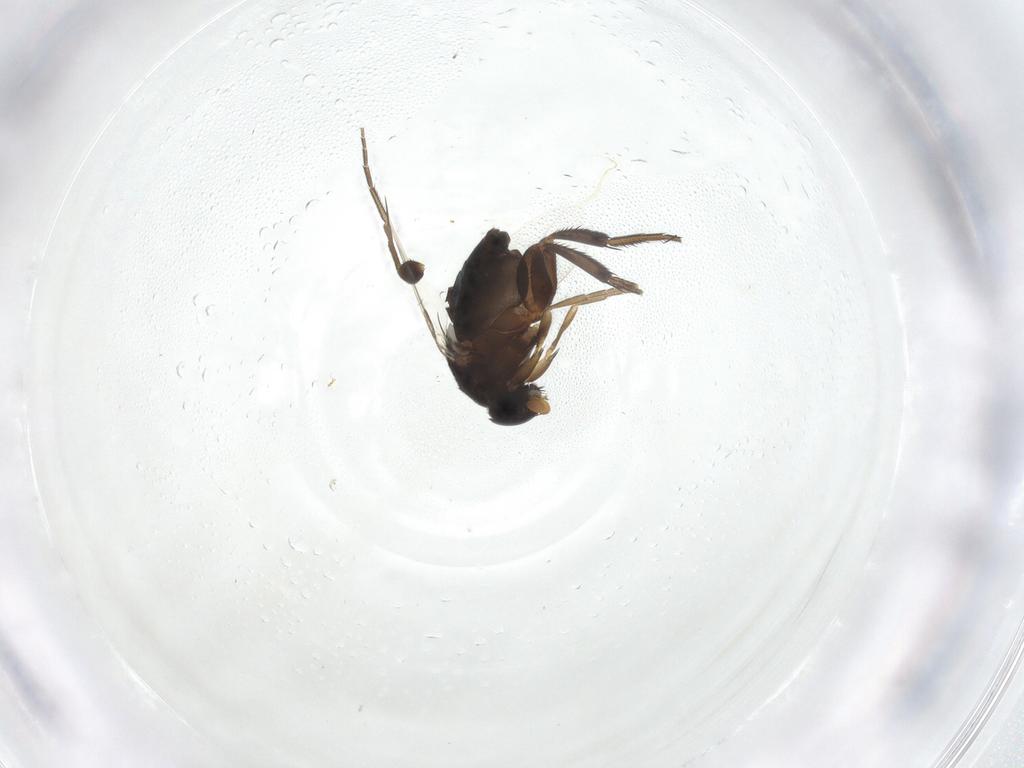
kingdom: Animalia
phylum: Arthropoda
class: Insecta
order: Diptera
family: Phoridae
